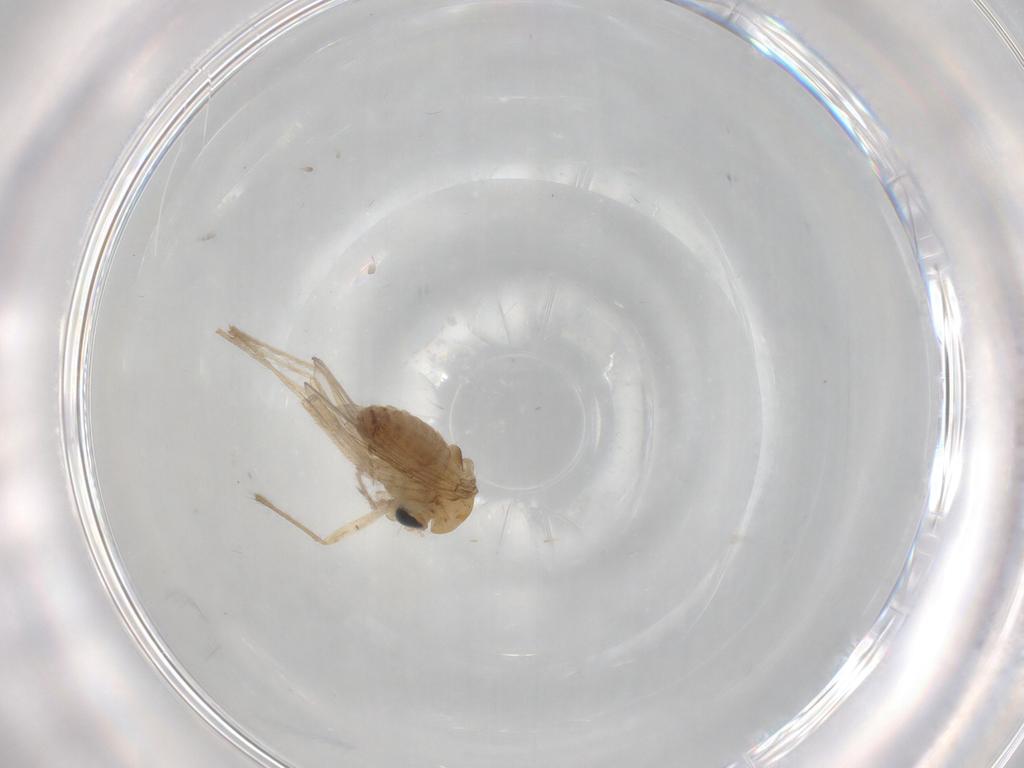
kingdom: Animalia
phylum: Arthropoda
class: Insecta
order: Diptera
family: Chironomidae
